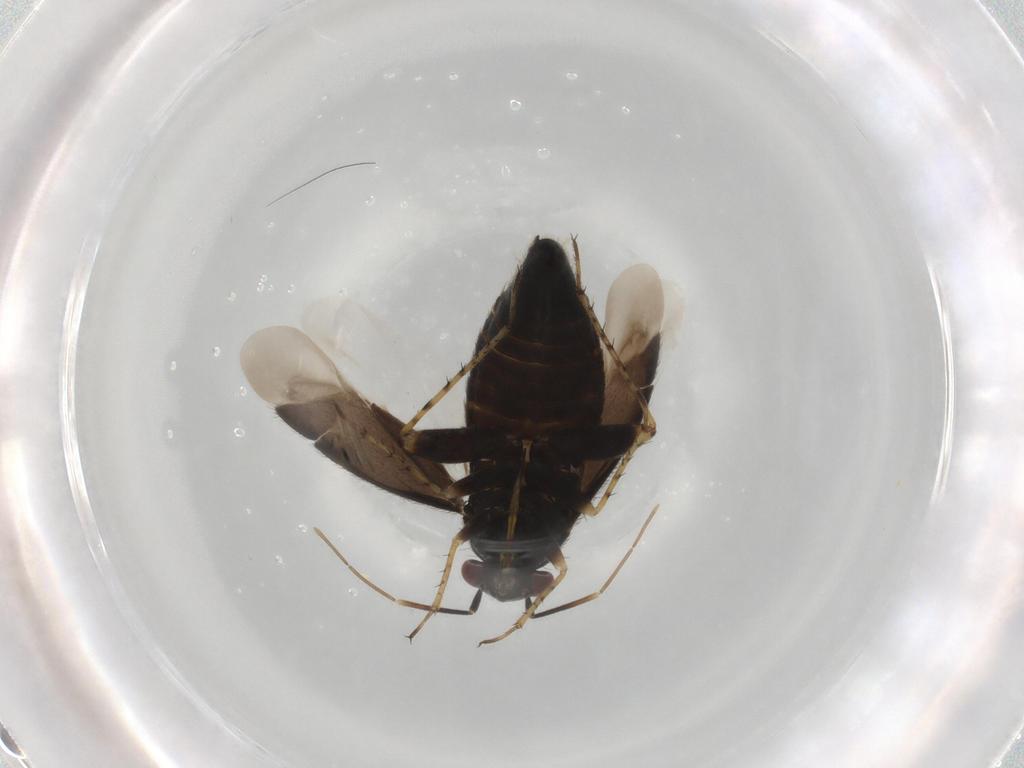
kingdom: Animalia
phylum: Arthropoda
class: Insecta
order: Hemiptera
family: Miridae
